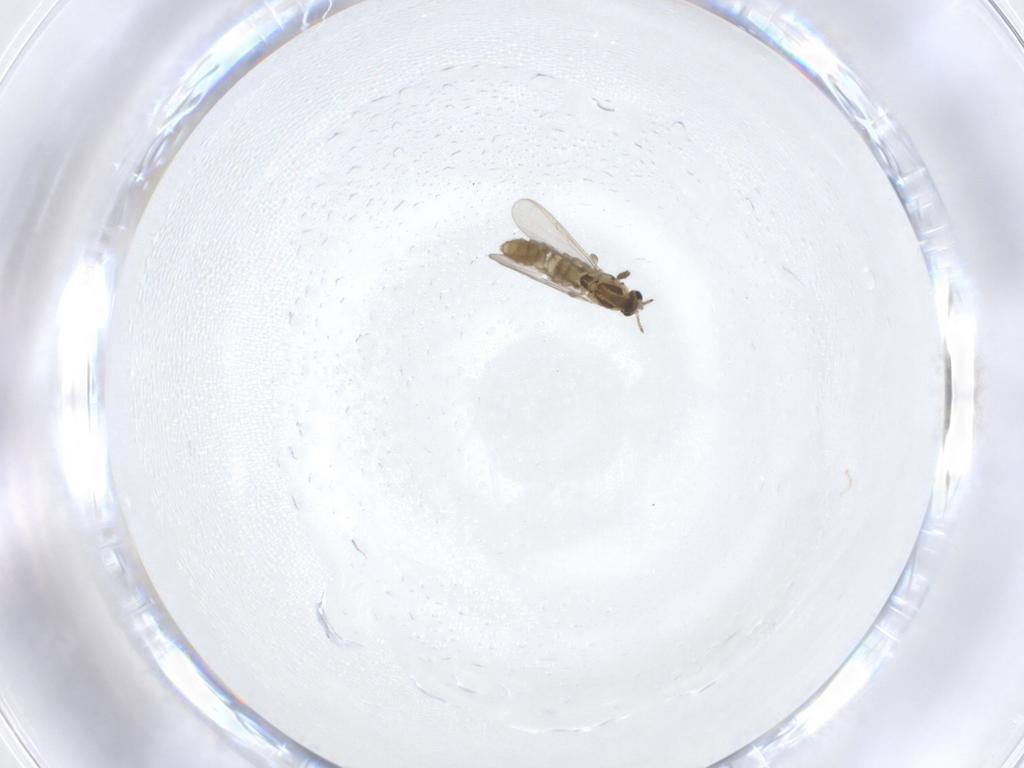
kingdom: Animalia
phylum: Arthropoda
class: Insecta
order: Diptera
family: Chironomidae
